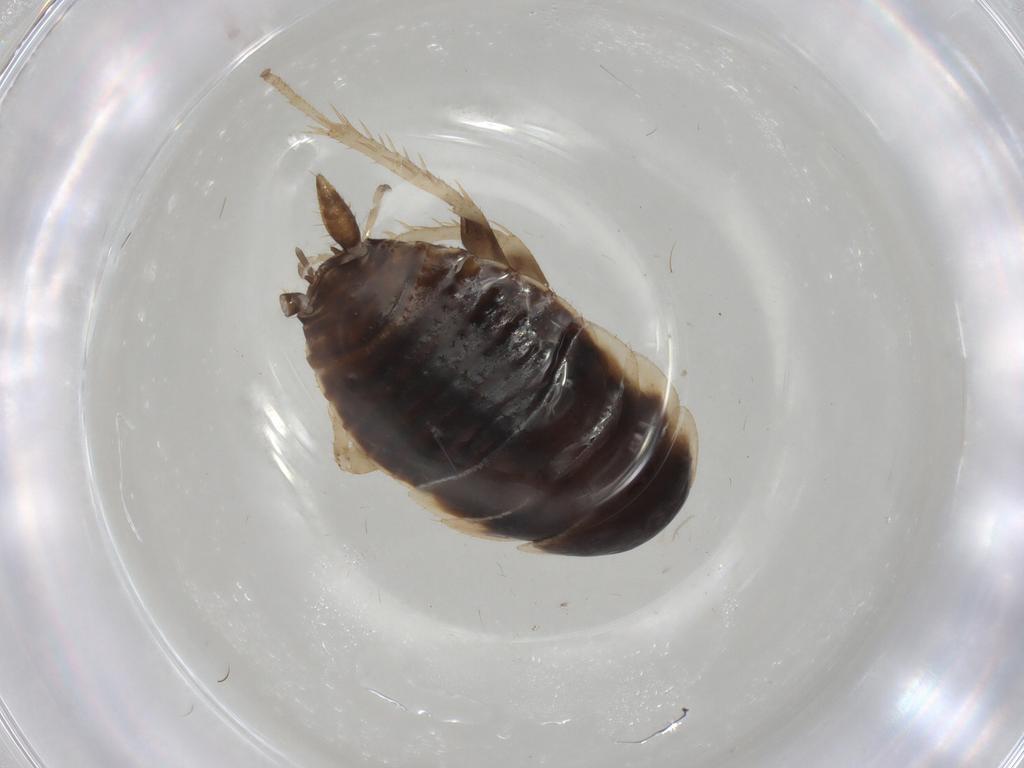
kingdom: Animalia
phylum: Arthropoda
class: Insecta
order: Blattodea
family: Ectobiidae
